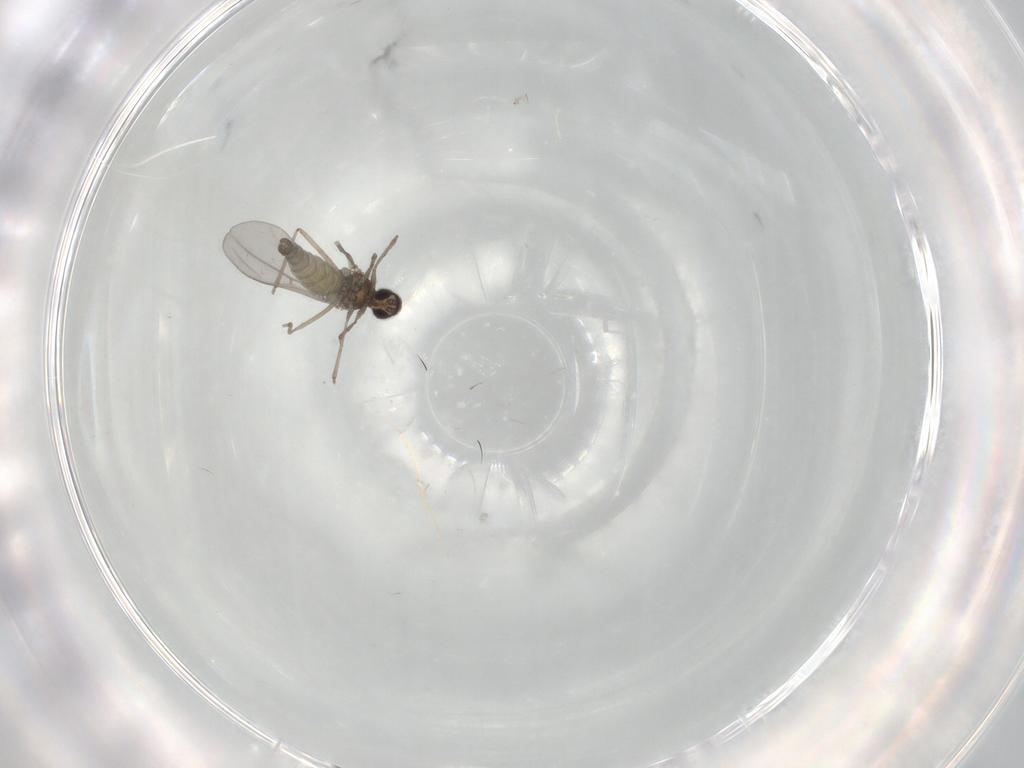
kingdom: Animalia
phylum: Arthropoda
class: Insecta
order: Diptera
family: Cecidomyiidae
